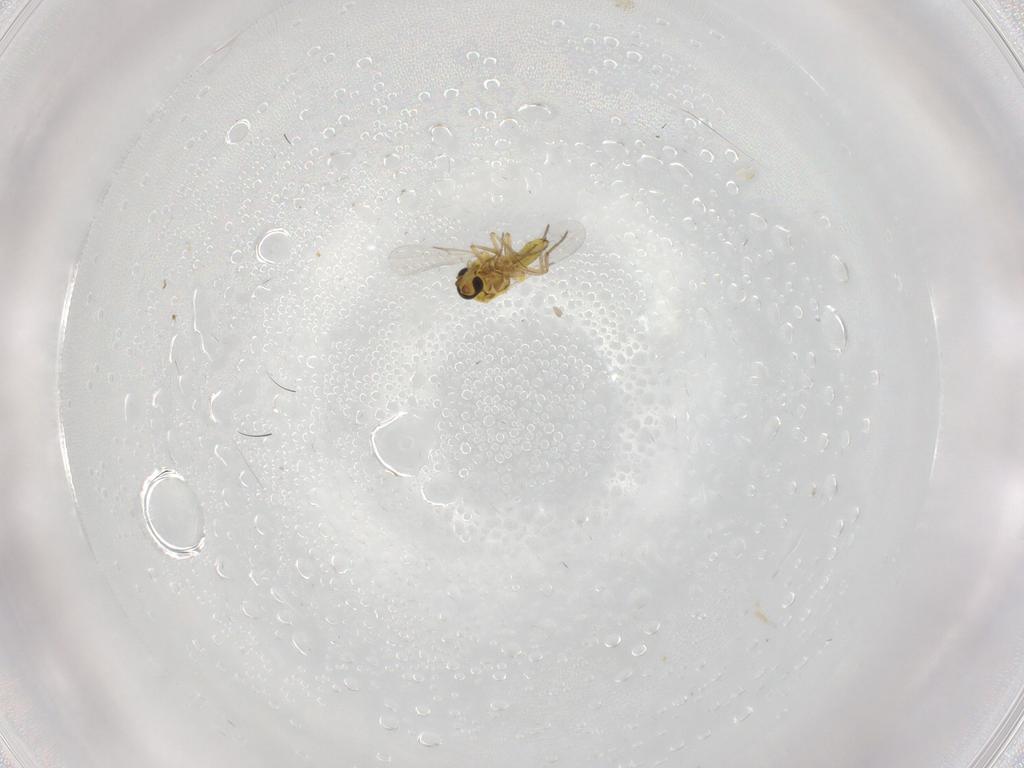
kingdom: Animalia
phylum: Arthropoda
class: Insecta
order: Diptera
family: Ceratopogonidae
